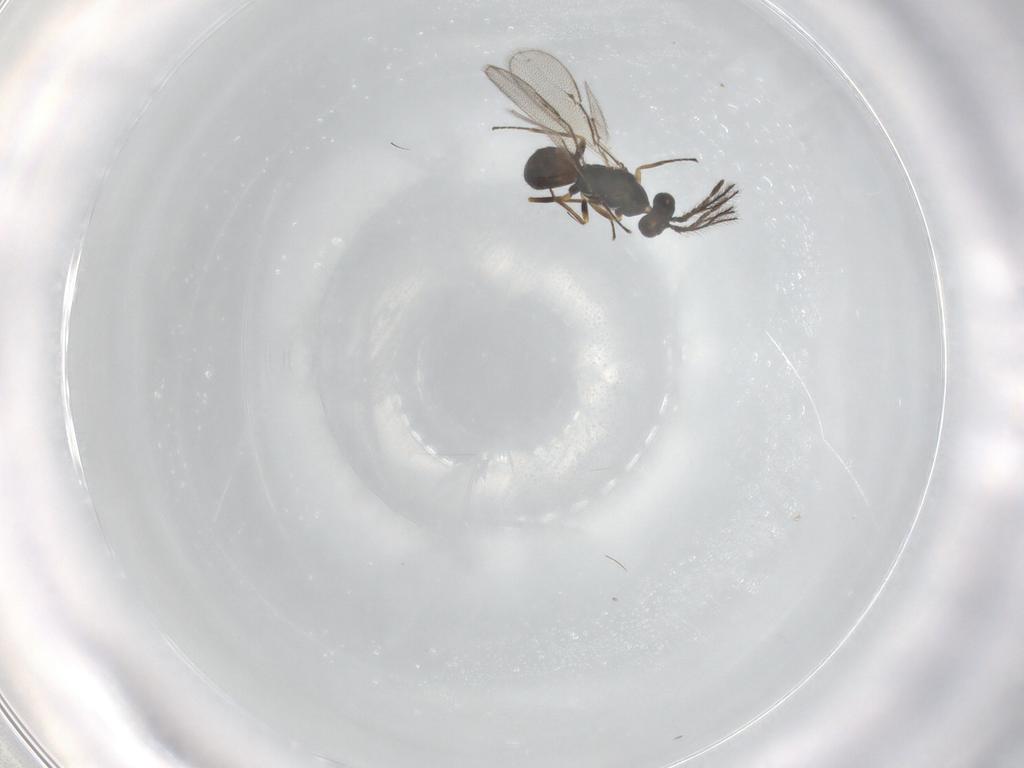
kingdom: Animalia
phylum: Arthropoda
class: Insecta
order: Hymenoptera
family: Eulophidae
